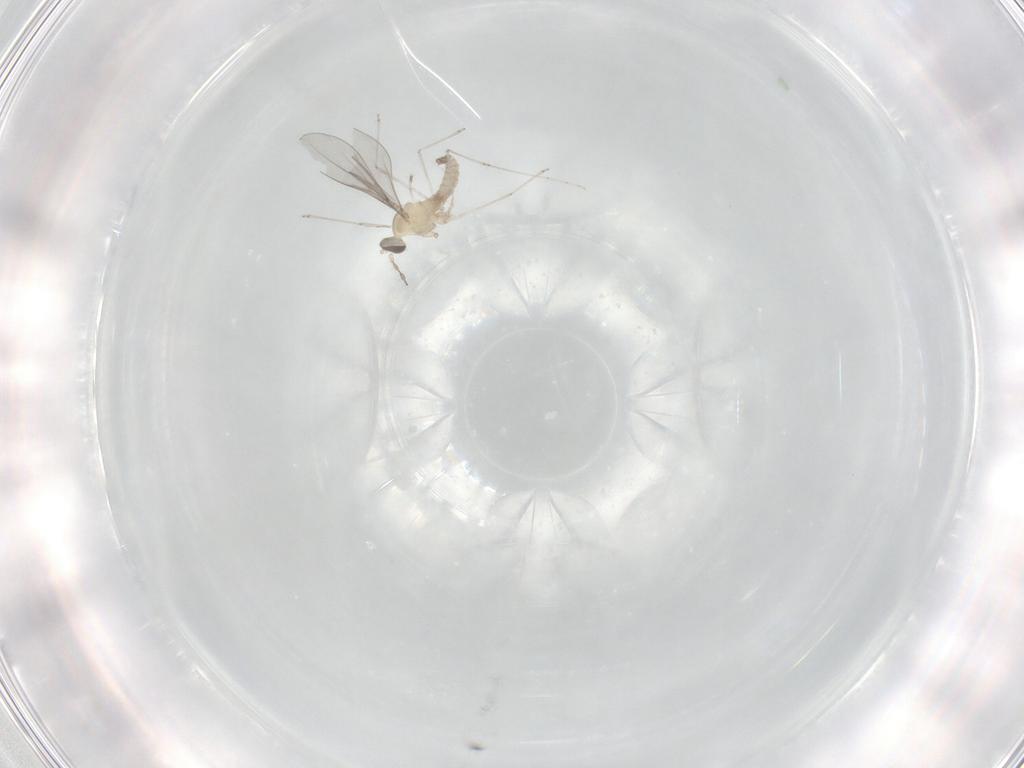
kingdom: Animalia
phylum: Arthropoda
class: Insecta
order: Diptera
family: Cecidomyiidae
